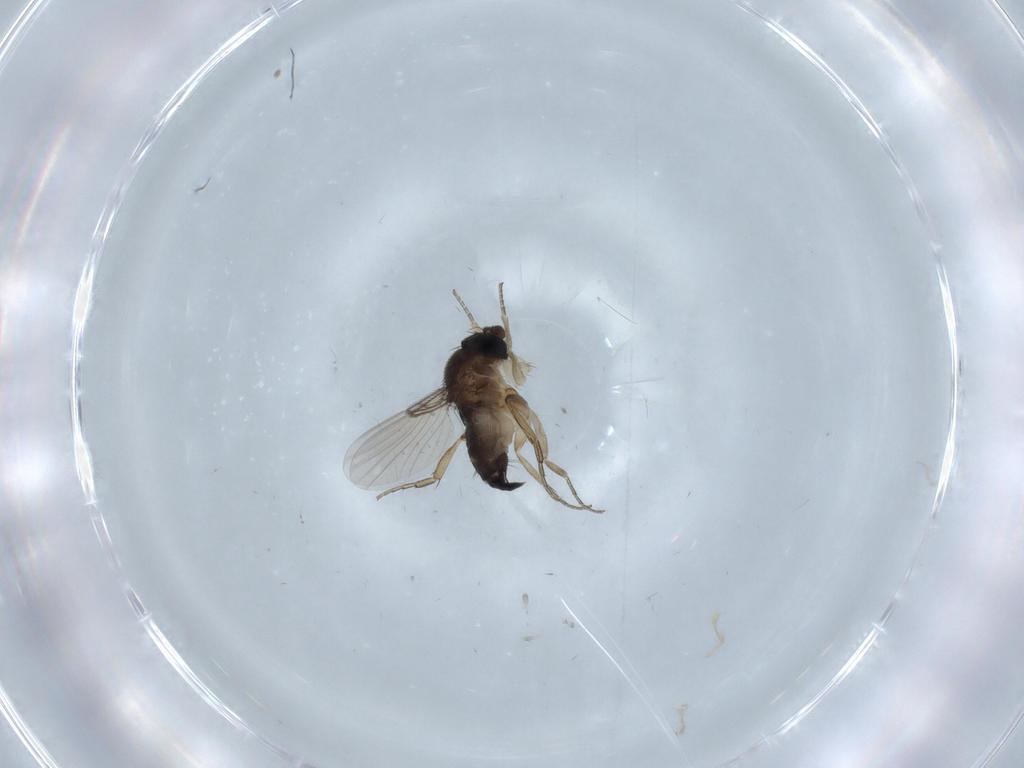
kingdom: Animalia
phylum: Arthropoda
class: Insecta
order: Diptera
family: Phoridae
